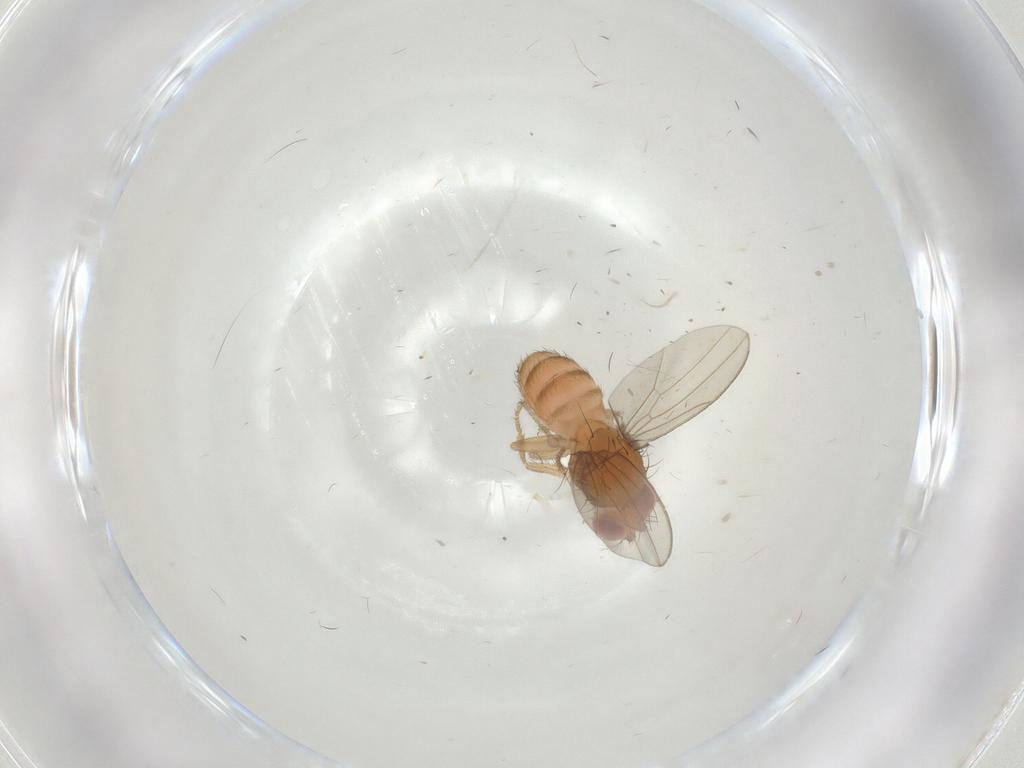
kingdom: Animalia
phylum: Arthropoda
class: Insecta
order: Diptera
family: Drosophilidae
